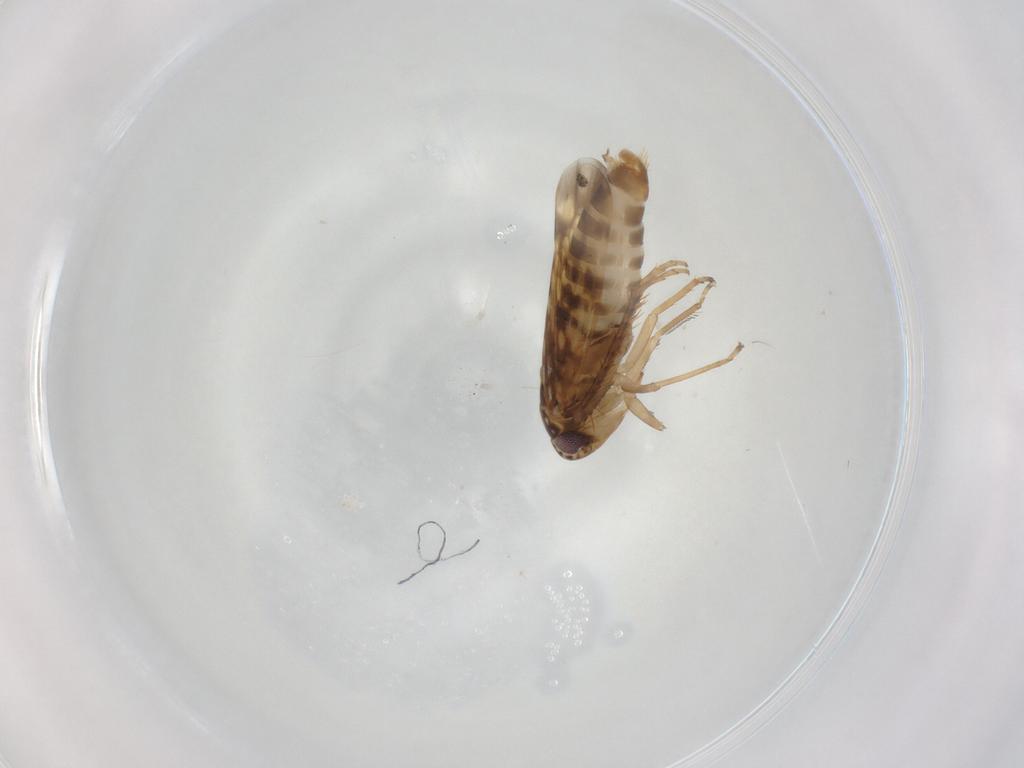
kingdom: Animalia
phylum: Arthropoda
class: Insecta
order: Hemiptera
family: Cicadellidae
